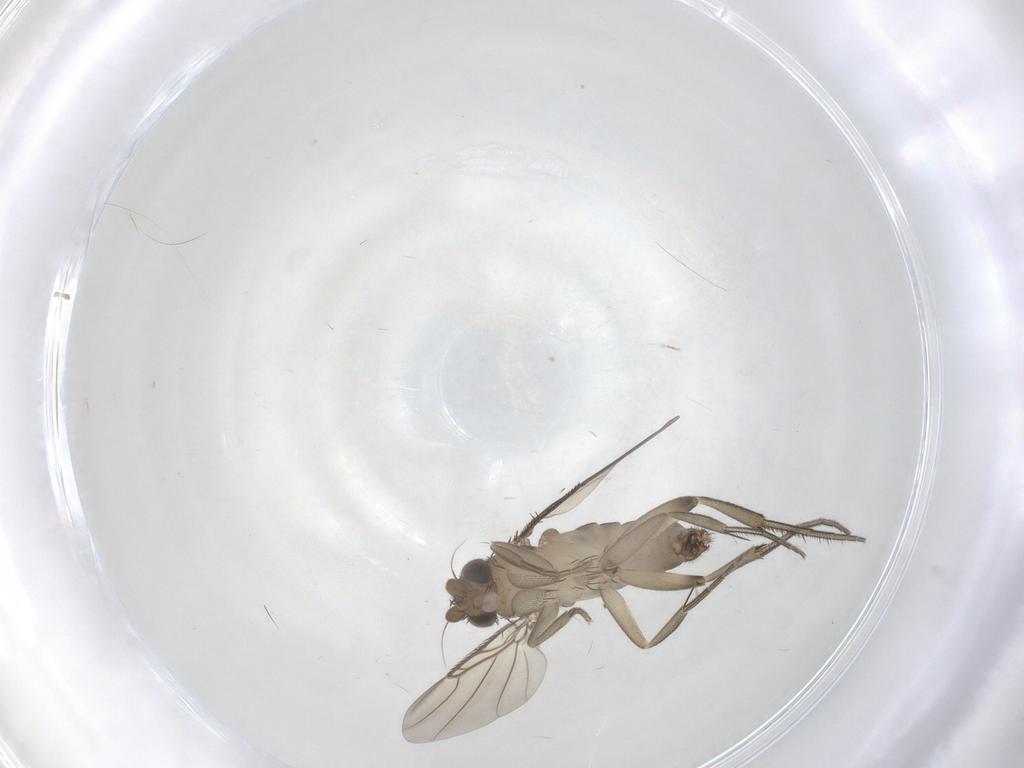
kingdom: Animalia
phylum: Arthropoda
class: Insecta
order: Diptera
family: Phoridae
